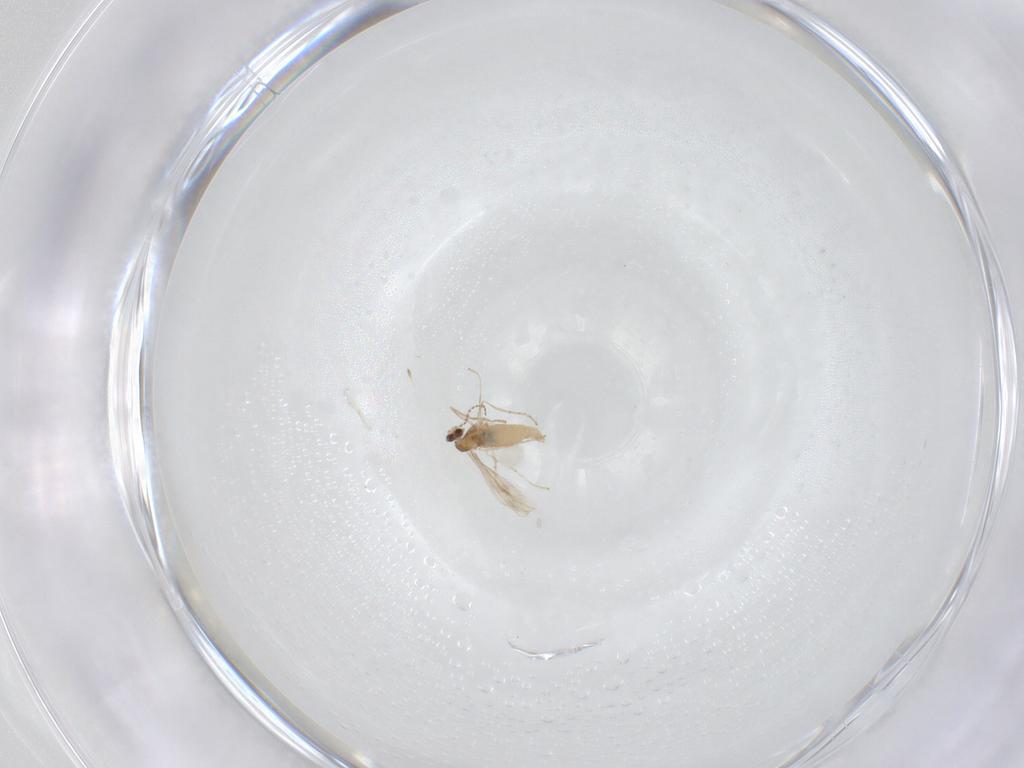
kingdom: Animalia
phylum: Arthropoda
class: Insecta
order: Diptera
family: Cecidomyiidae
